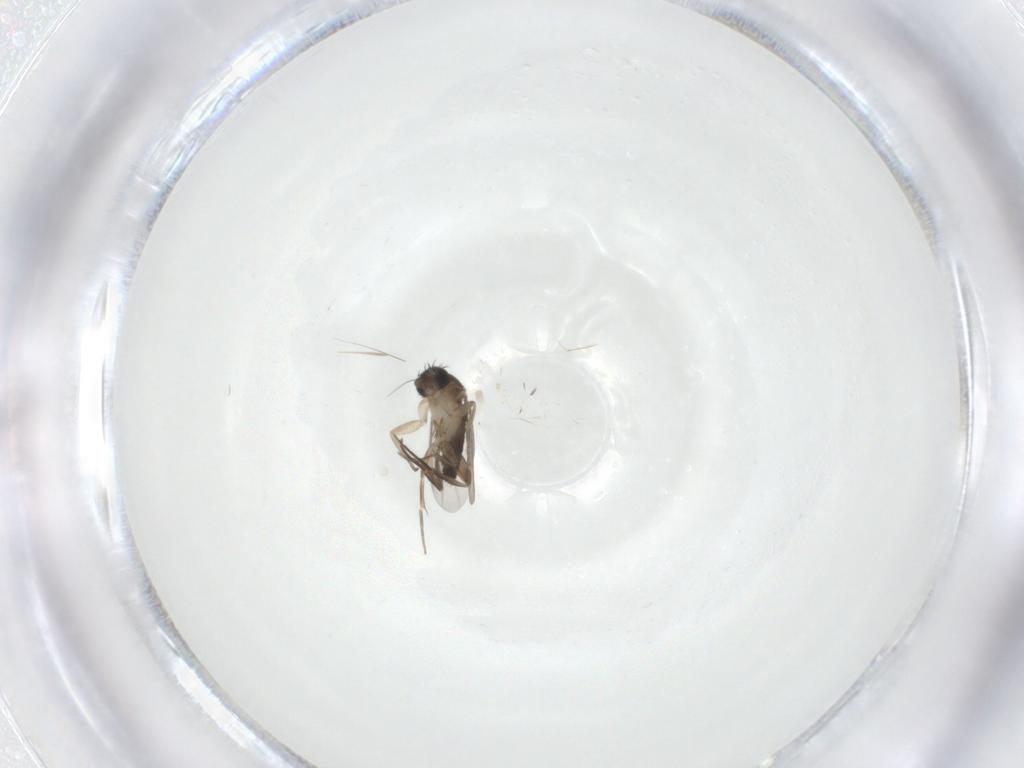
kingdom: Animalia
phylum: Arthropoda
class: Insecta
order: Diptera
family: Phoridae
